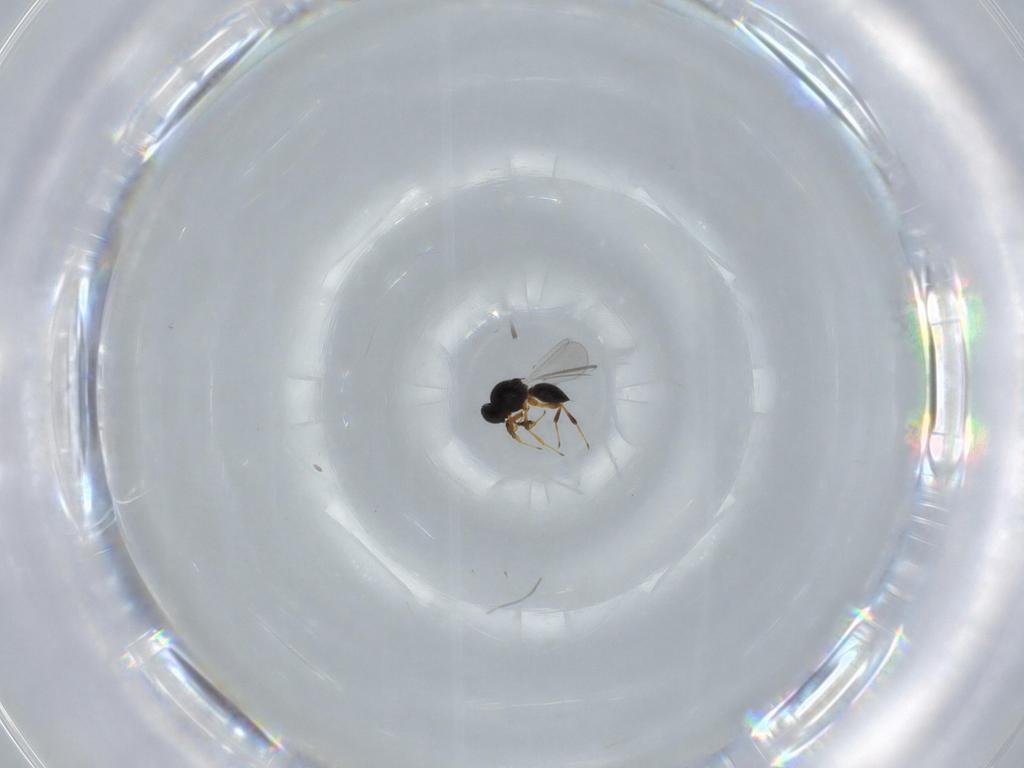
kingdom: Animalia
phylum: Arthropoda
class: Insecta
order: Hymenoptera
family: Platygastridae
